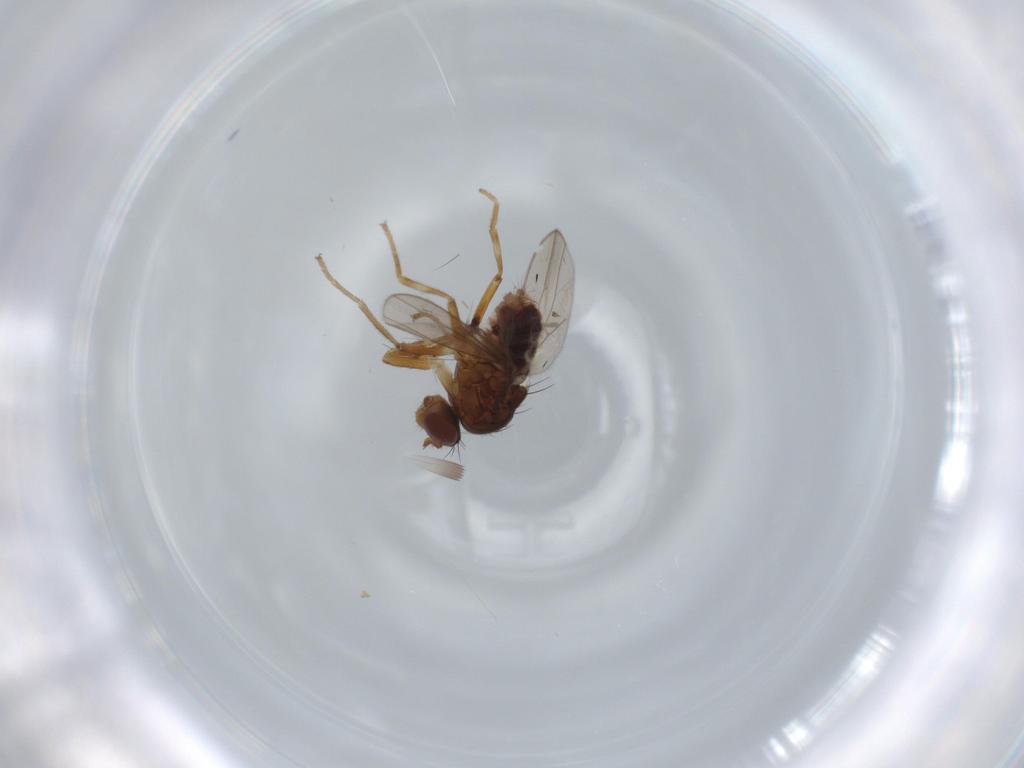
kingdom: Animalia
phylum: Arthropoda
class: Insecta
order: Diptera
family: Ephydridae
